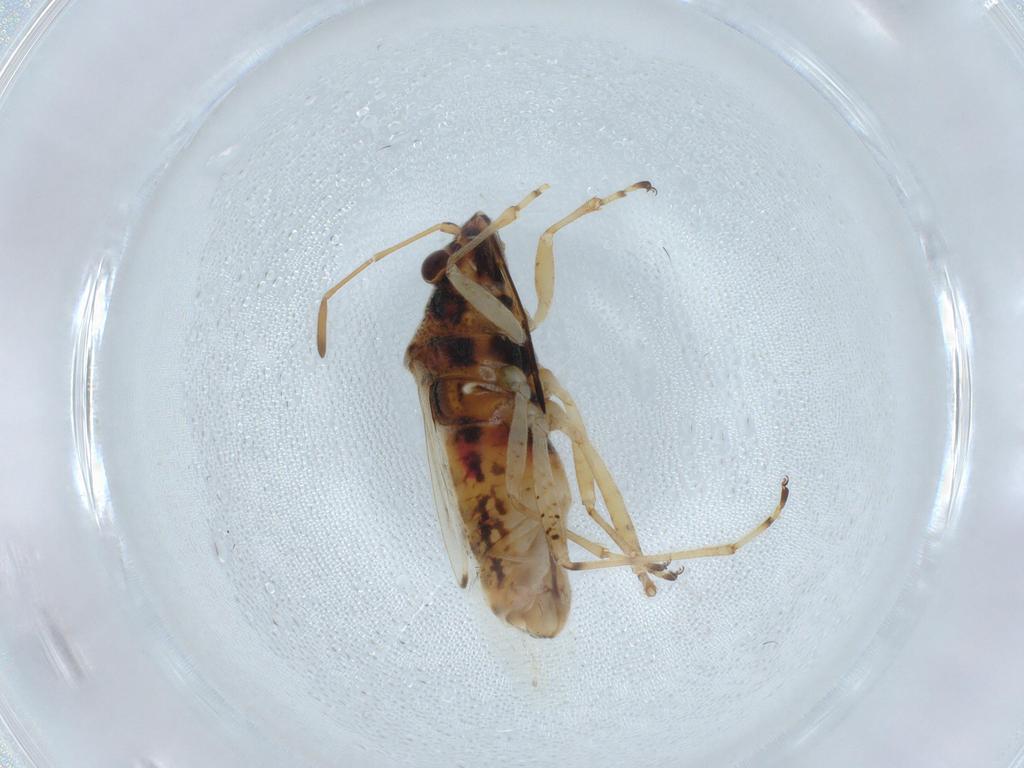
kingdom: Animalia
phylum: Arthropoda
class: Insecta
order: Hemiptera
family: Lygaeidae
